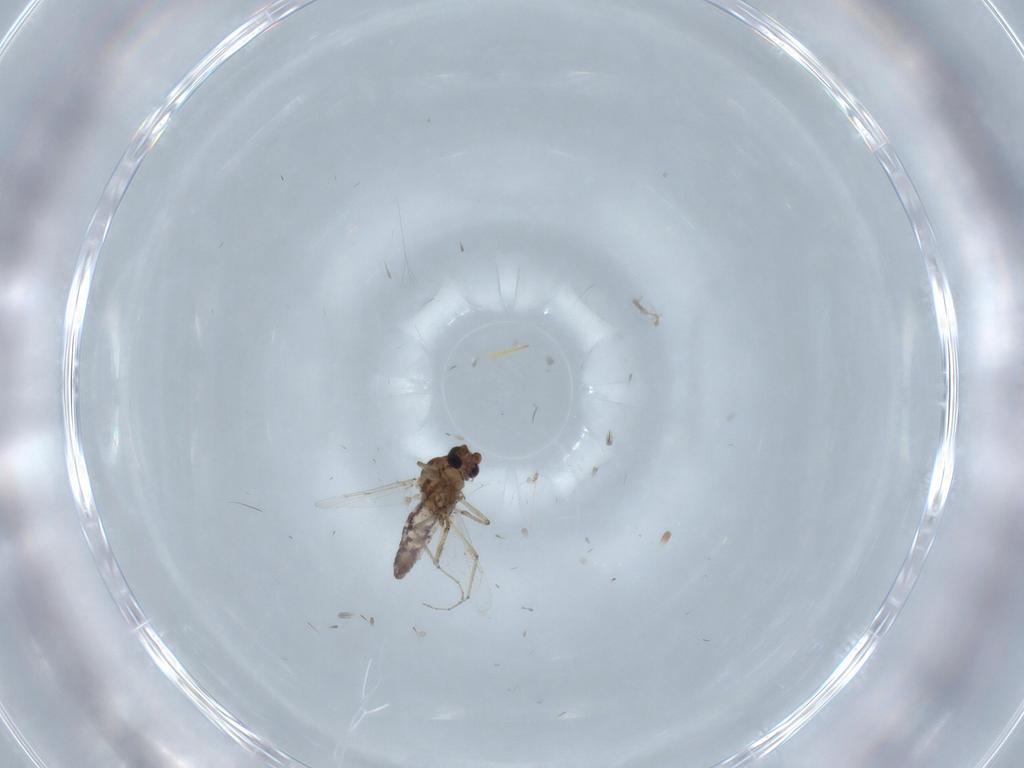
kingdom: Animalia
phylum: Arthropoda
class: Insecta
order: Diptera
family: Ceratopogonidae
